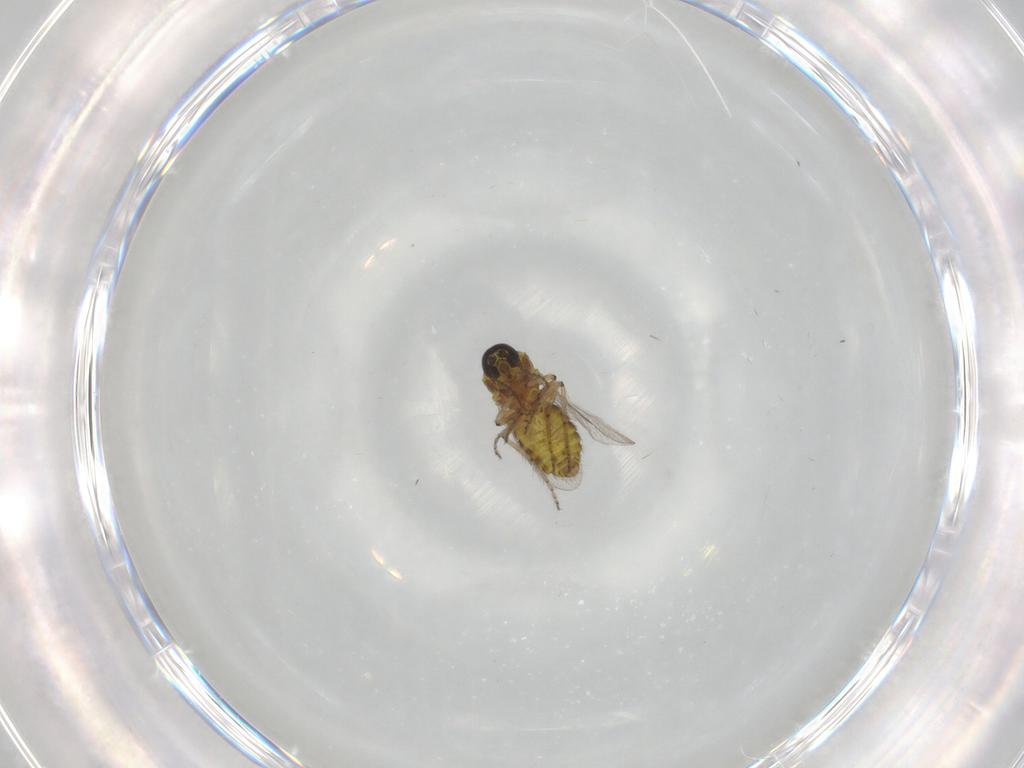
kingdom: Animalia
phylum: Arthropoda
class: Insecta
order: Diptera
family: Ceratopogonidae
